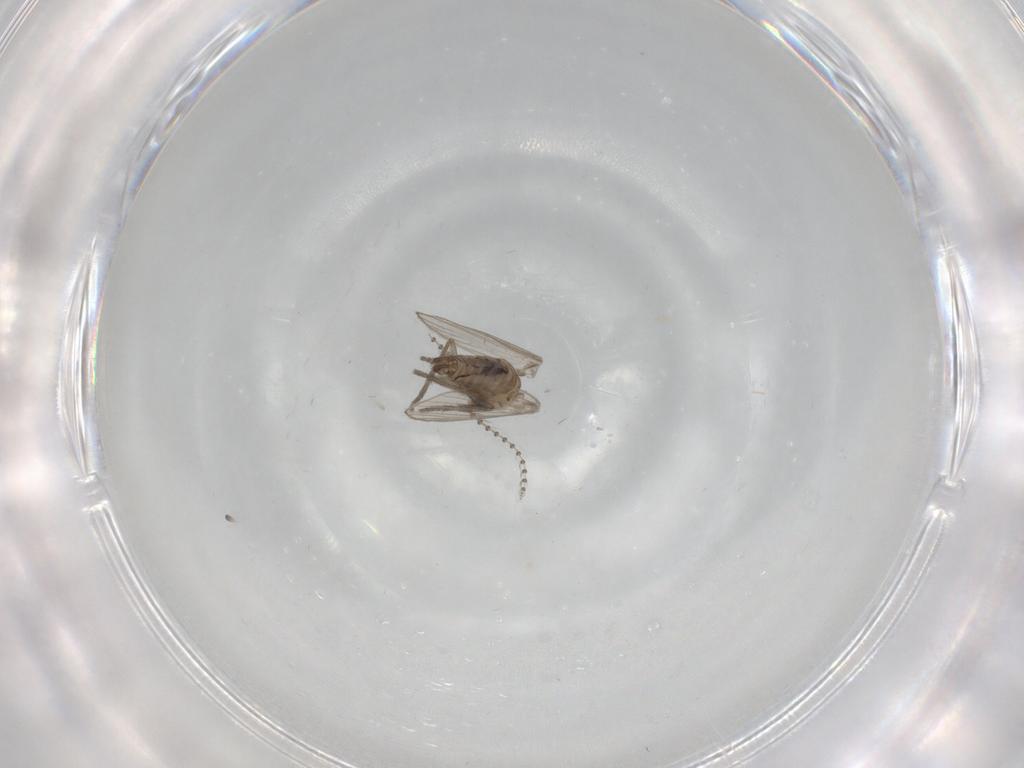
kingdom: Animalia
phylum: Arthropoda
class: Insecta
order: Diptera
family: Psychodidae
